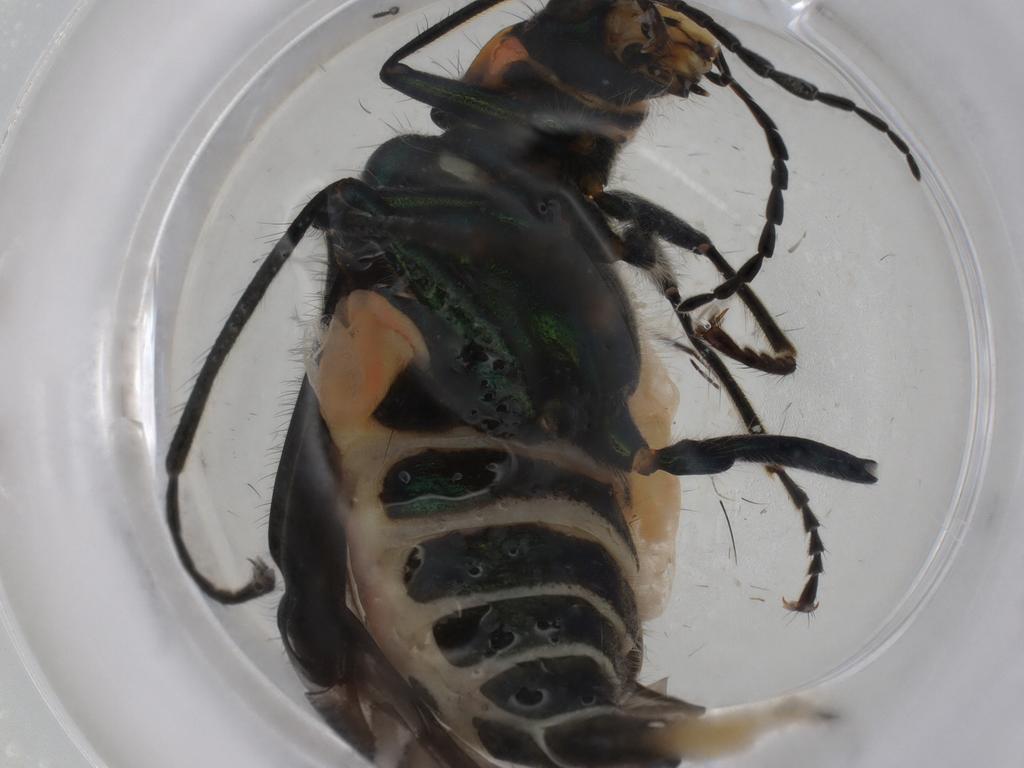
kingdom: Animalia
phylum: Arthropoda
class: Insecta
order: Coleoptera
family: Melyridae
